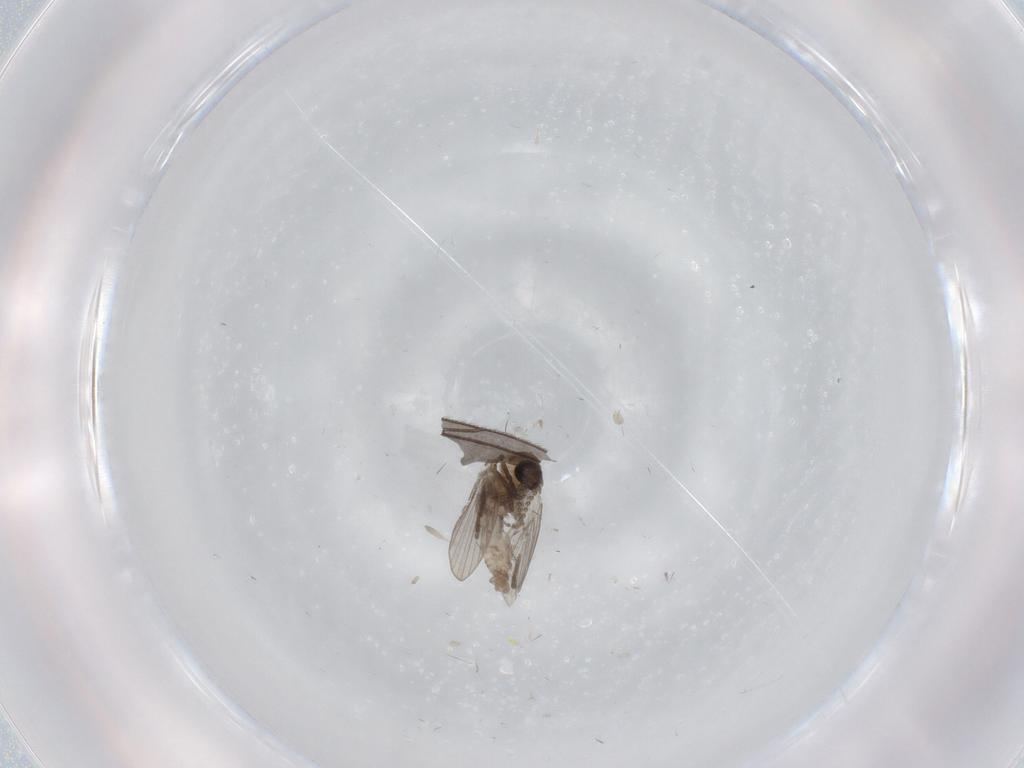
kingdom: Animalia
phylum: Arthropoda
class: Insecta
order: Diptera
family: Psychodidae
